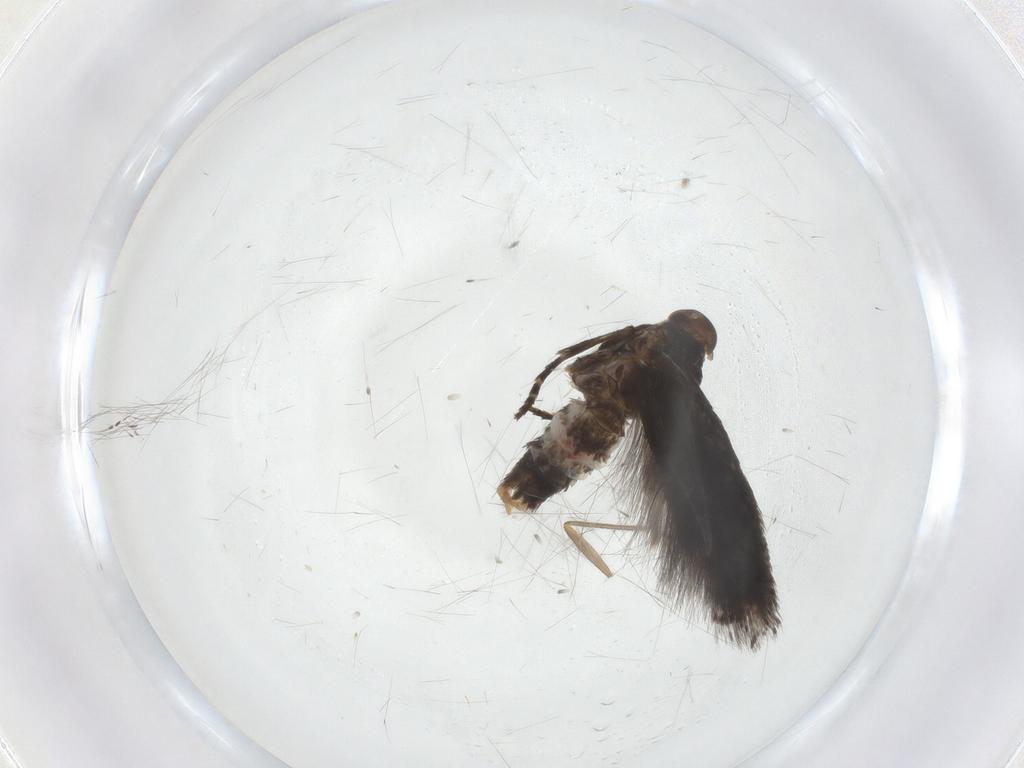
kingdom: Animalia
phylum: Arthropoda
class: Insecta
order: Lepidoptera
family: Elachistidae
